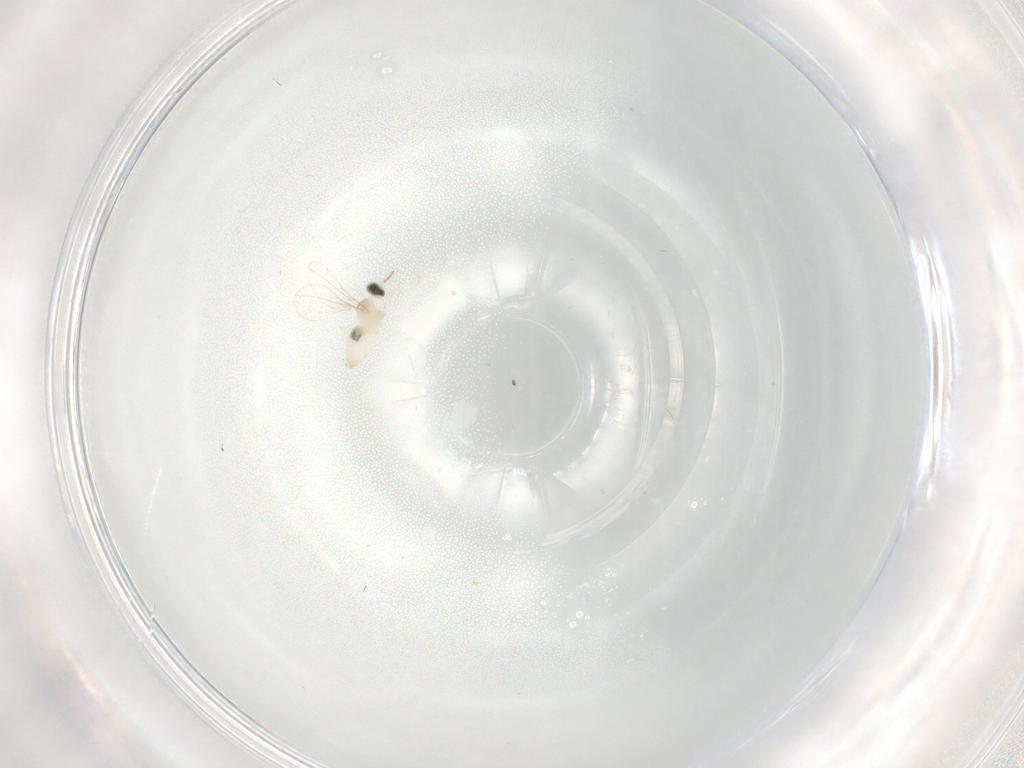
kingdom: Animalia
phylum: Arthropoda
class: Insecta
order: Diptera
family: Cecidomyiidae
